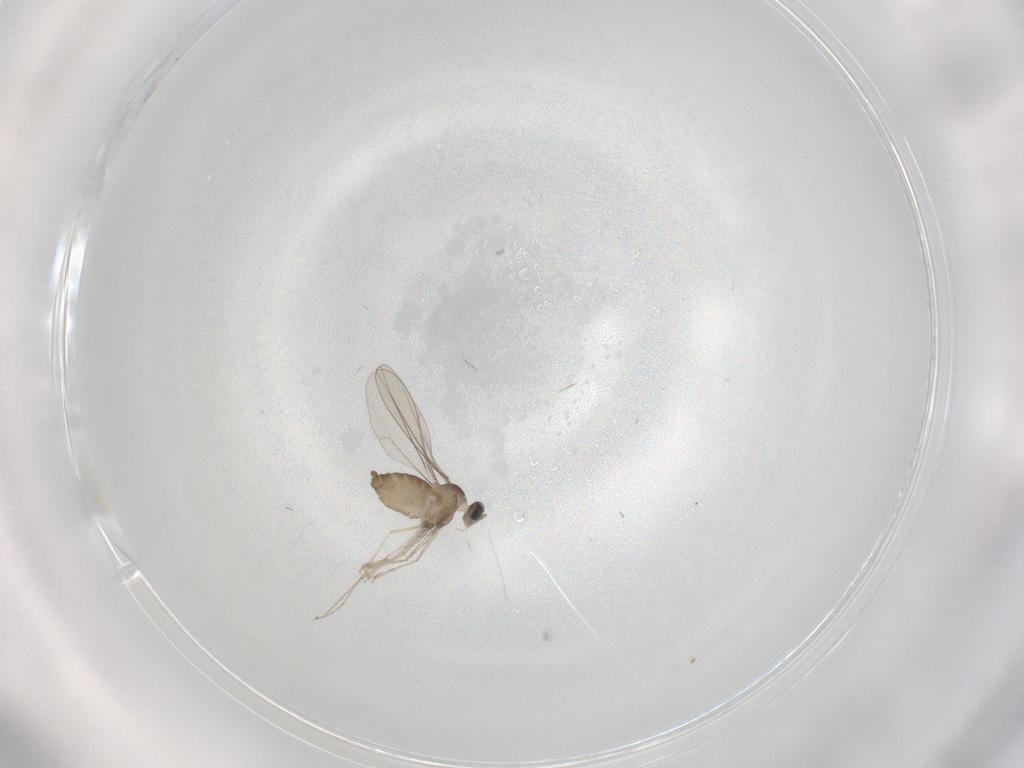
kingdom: Animalia
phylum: Arthropoda
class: Insecta
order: Diptera
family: Cecidomyiidae
